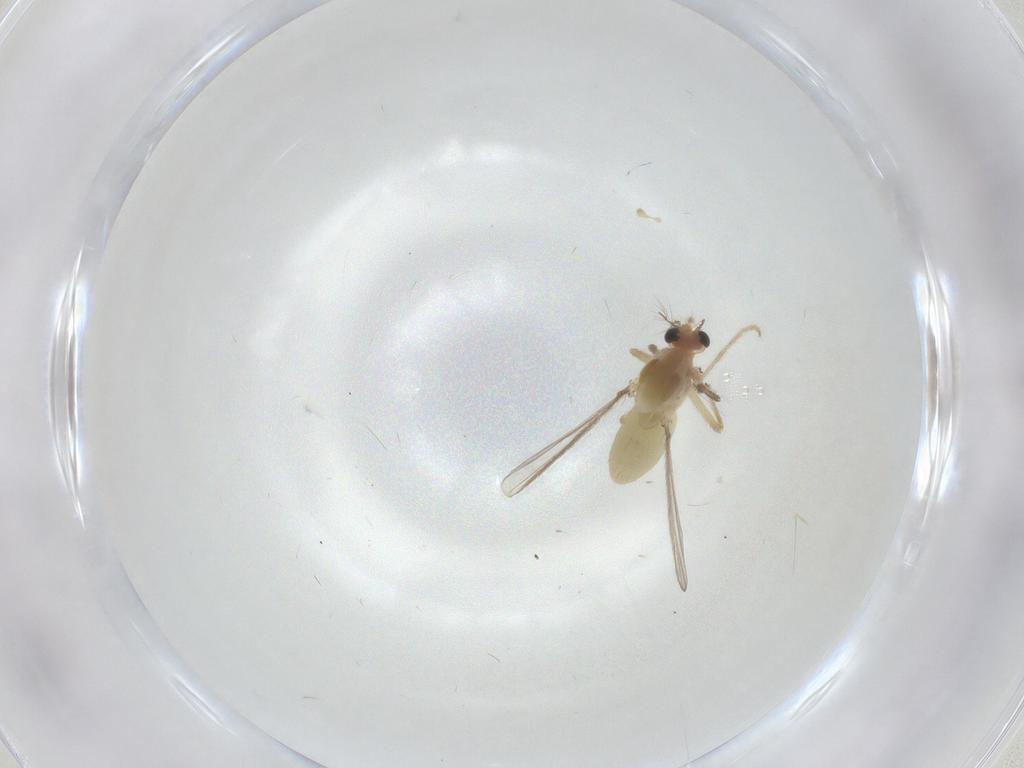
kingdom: Animalia
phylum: Arthropoda
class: Insecta
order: Diptera
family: Chironomidae
